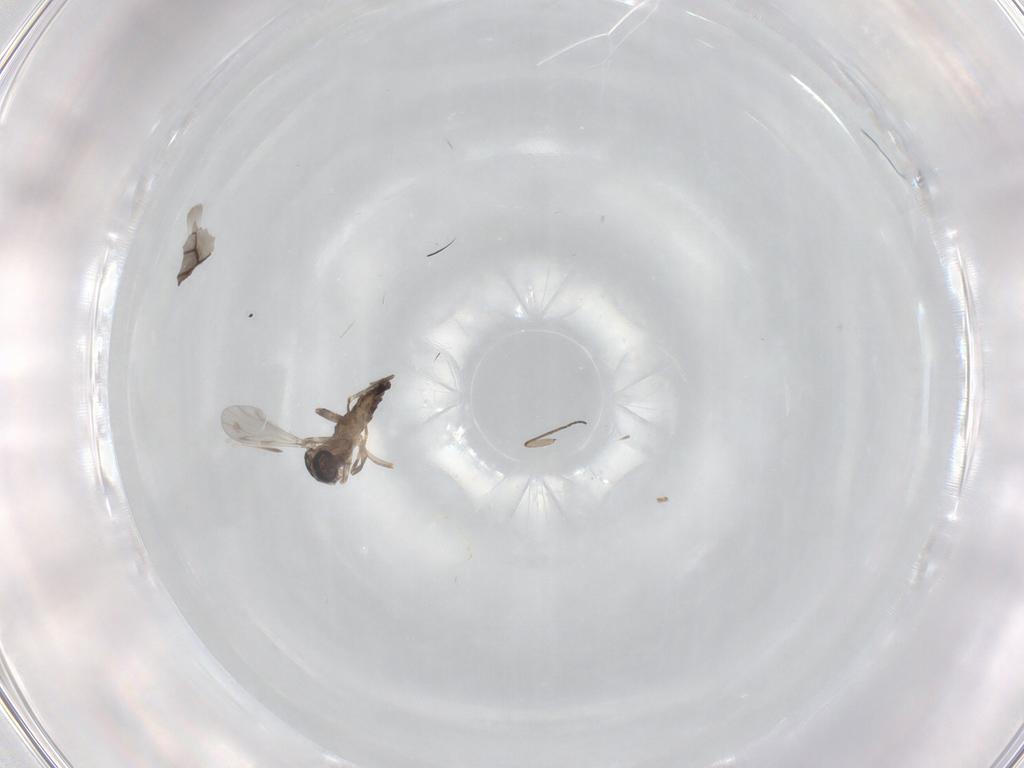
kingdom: Animalia
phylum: Arthropoda
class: Insecta
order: Diptera
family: Ceratopogonidae
